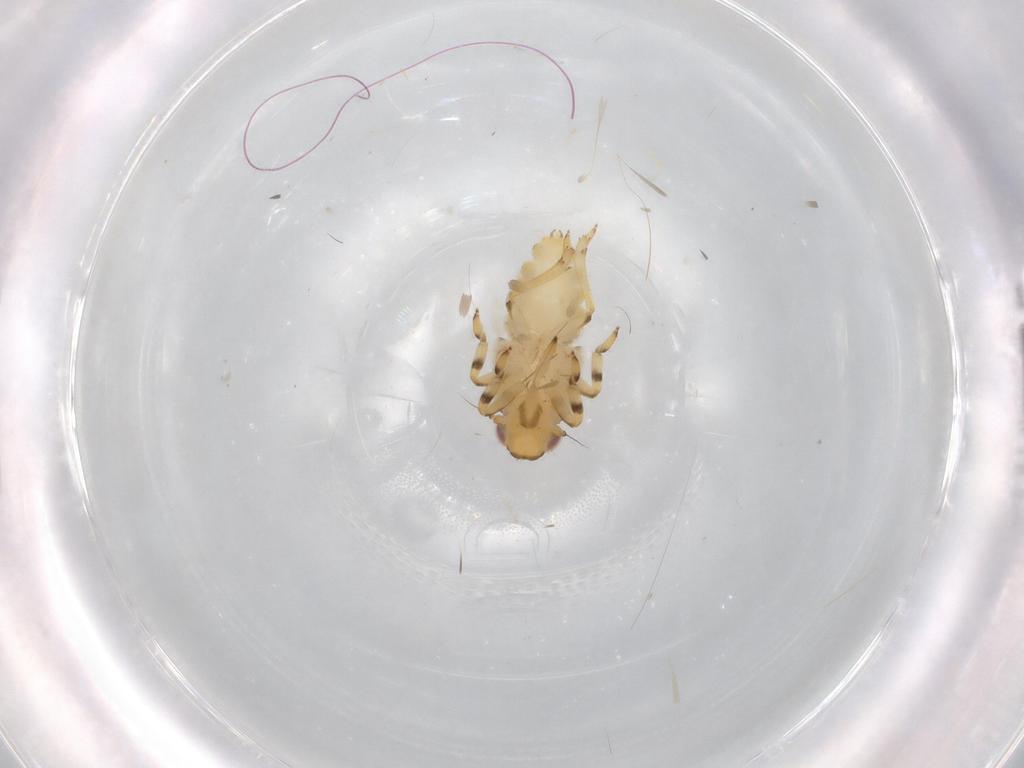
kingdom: Animalia
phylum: Arthropoda
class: Insecta
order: Hemiptera
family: Issidae
